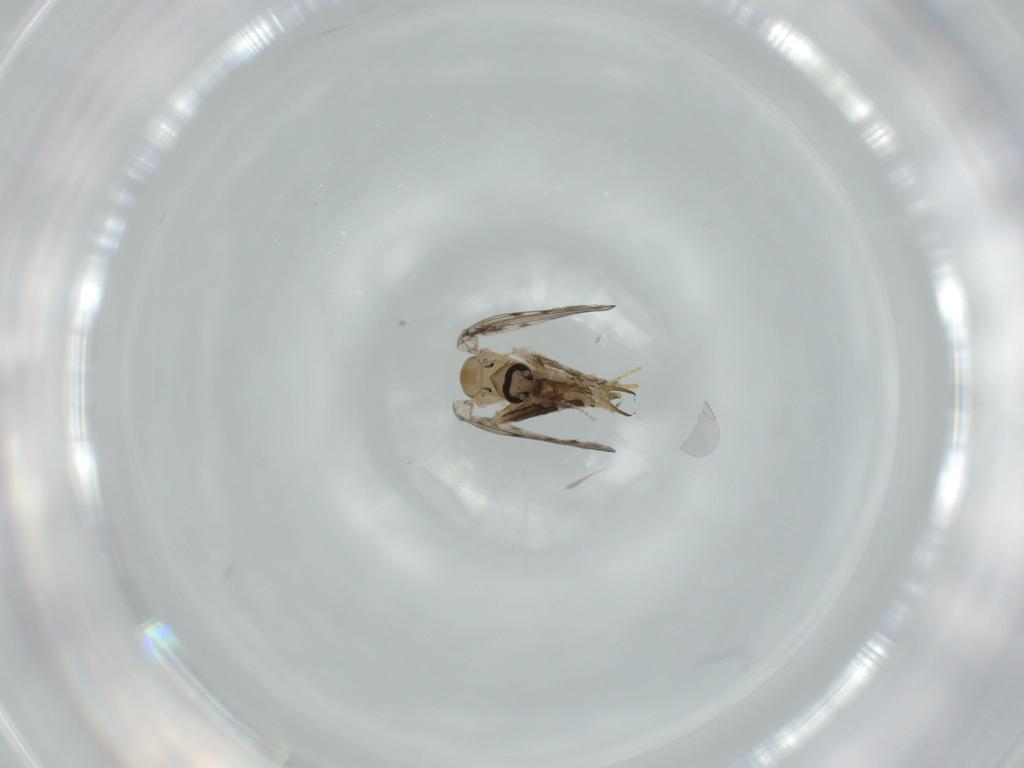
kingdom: Animalia
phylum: Arthropoda
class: Insecta
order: Diptera
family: Psychodidae
